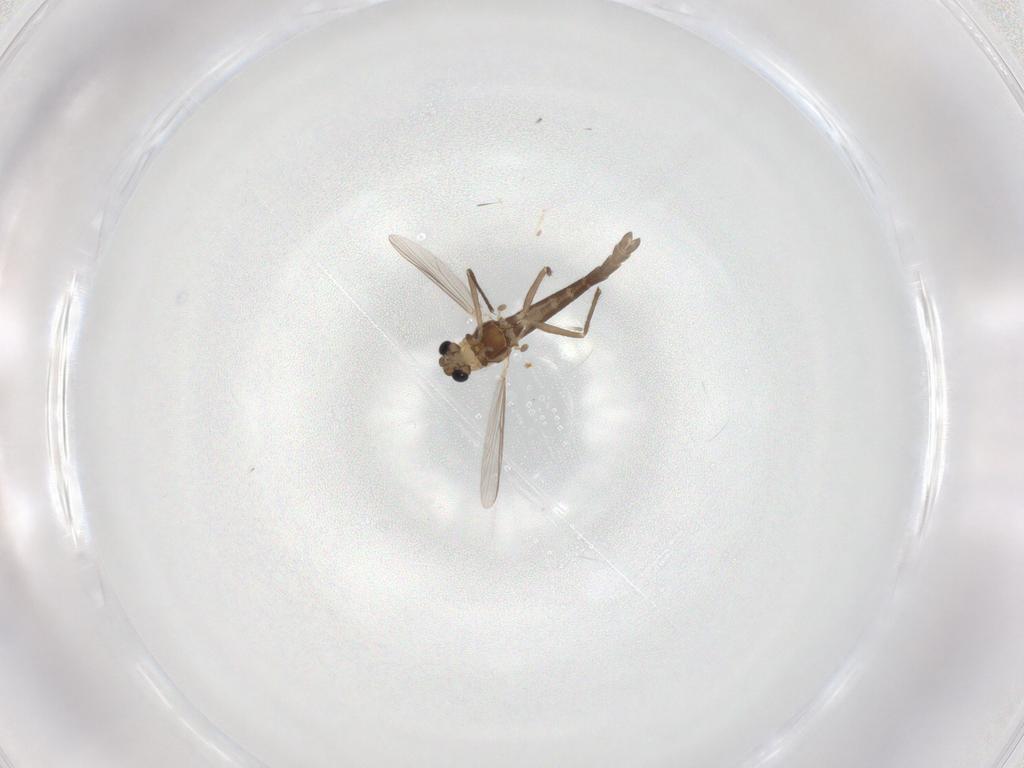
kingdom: Animalia
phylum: Arthropoda
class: Insecta
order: Diptera
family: Chironomidae
